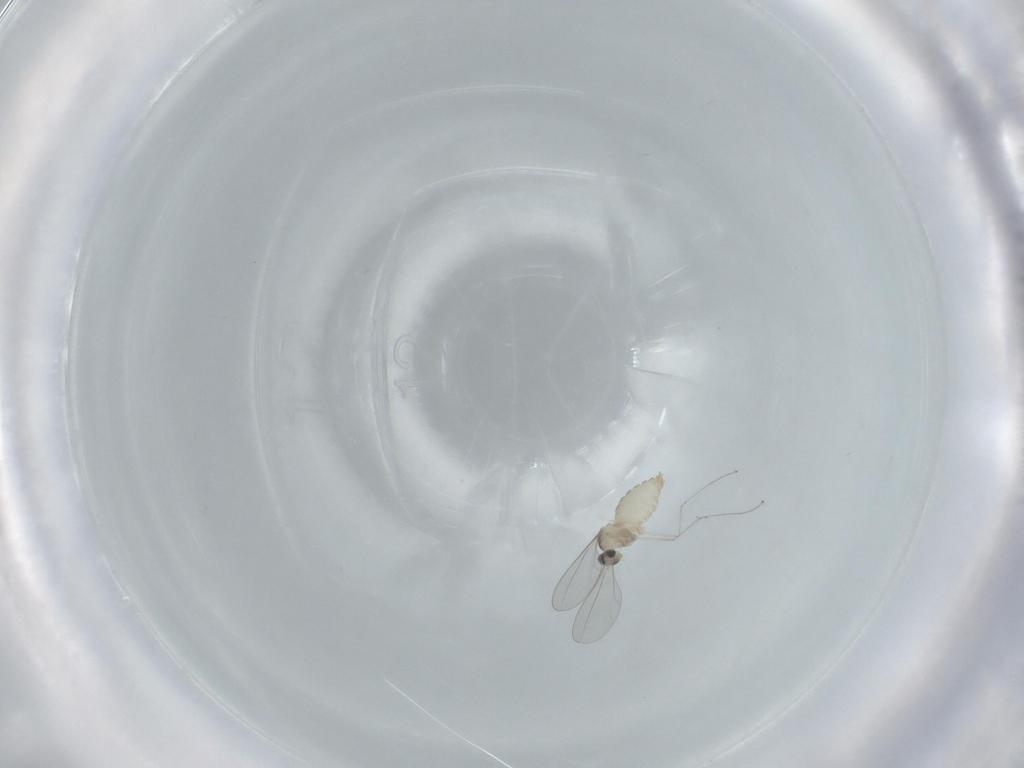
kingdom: Animalia
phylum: Arthropoda
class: Insecta
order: Diptera
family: Cecidomyiidae
